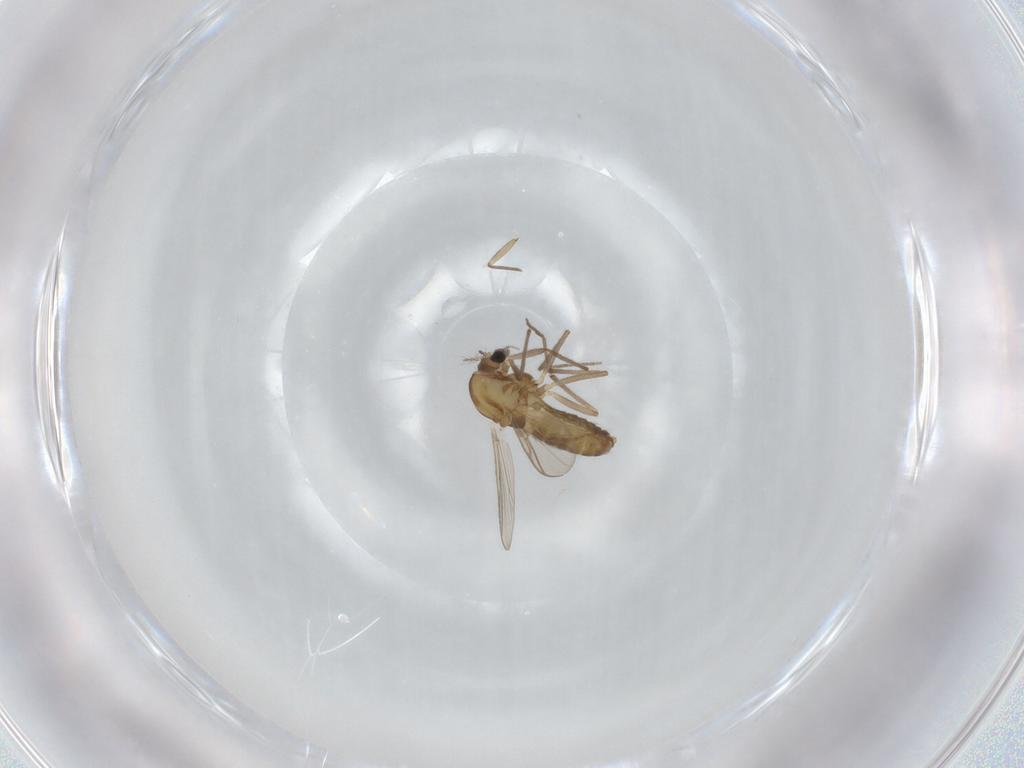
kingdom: Animalia
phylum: Arthropoda
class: Insecta
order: Diptera
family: Chironomidae
